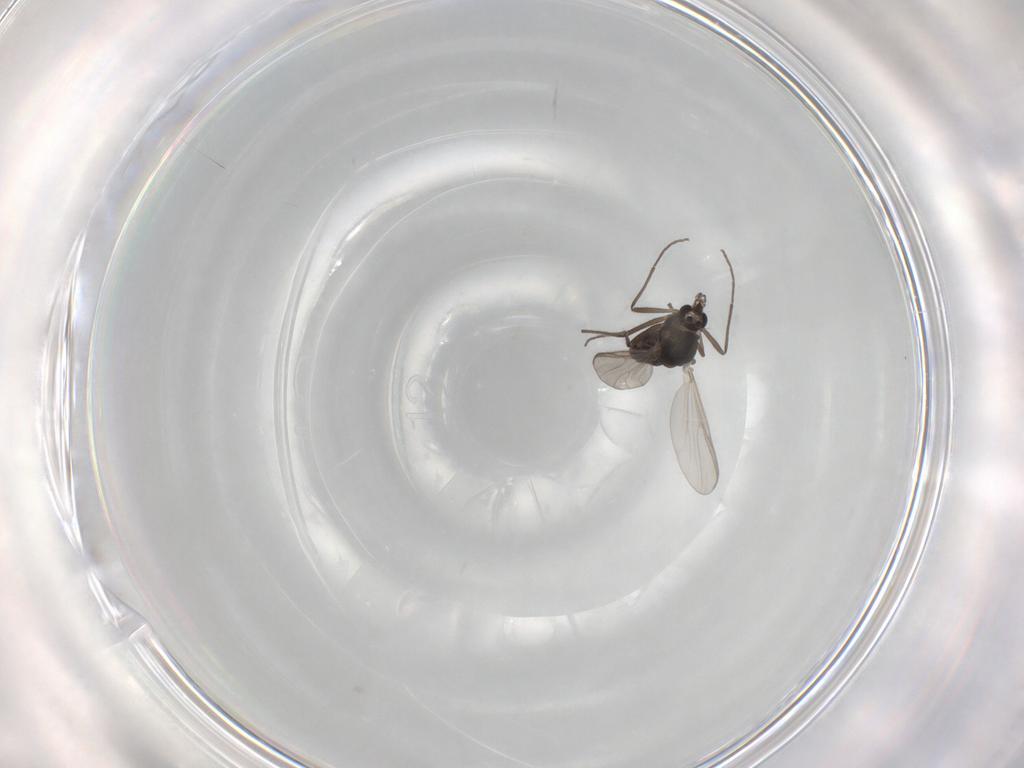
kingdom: Animalia
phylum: Arthropoda
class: Insecta
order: Diptera
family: Chironomidae
